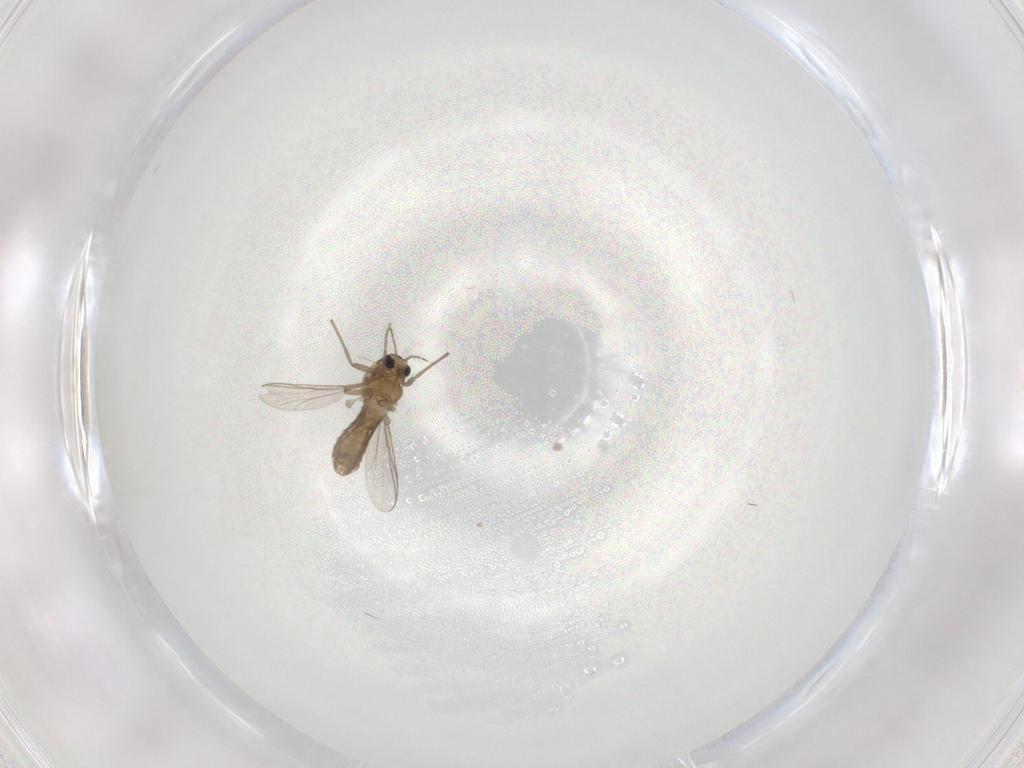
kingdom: Animalia
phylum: Arthropoda
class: Insecta
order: Diptera
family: Chironomidae
